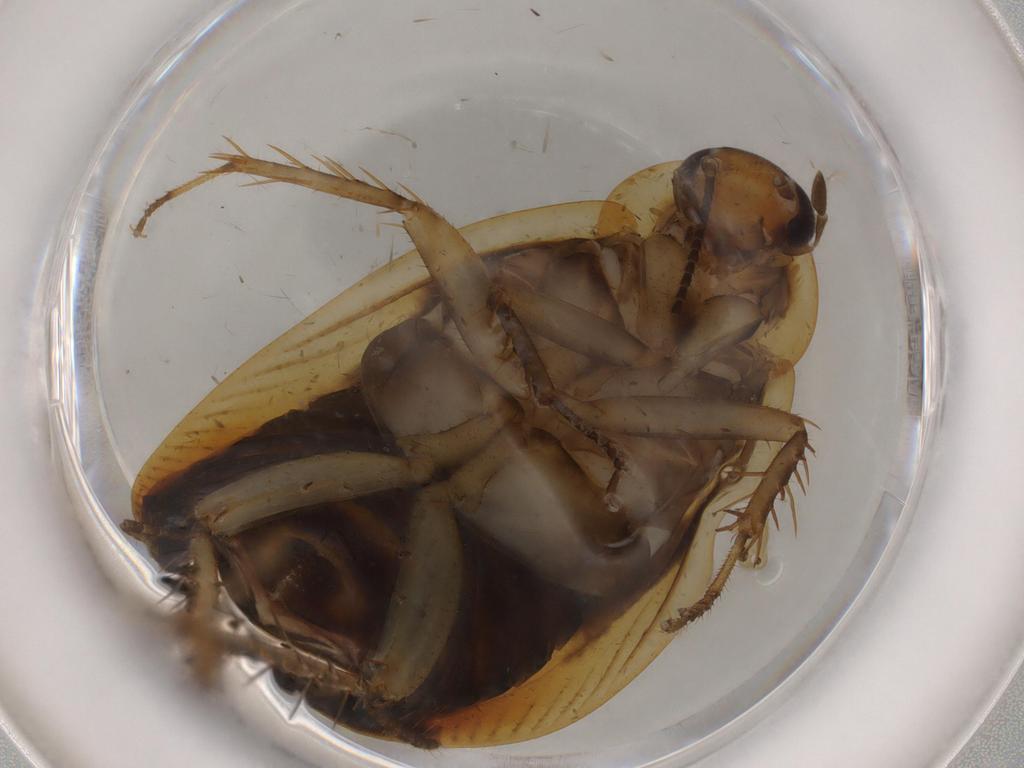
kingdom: Animalia
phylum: Arthropoda
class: Insecta
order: Blattodea
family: Ectobiidae
